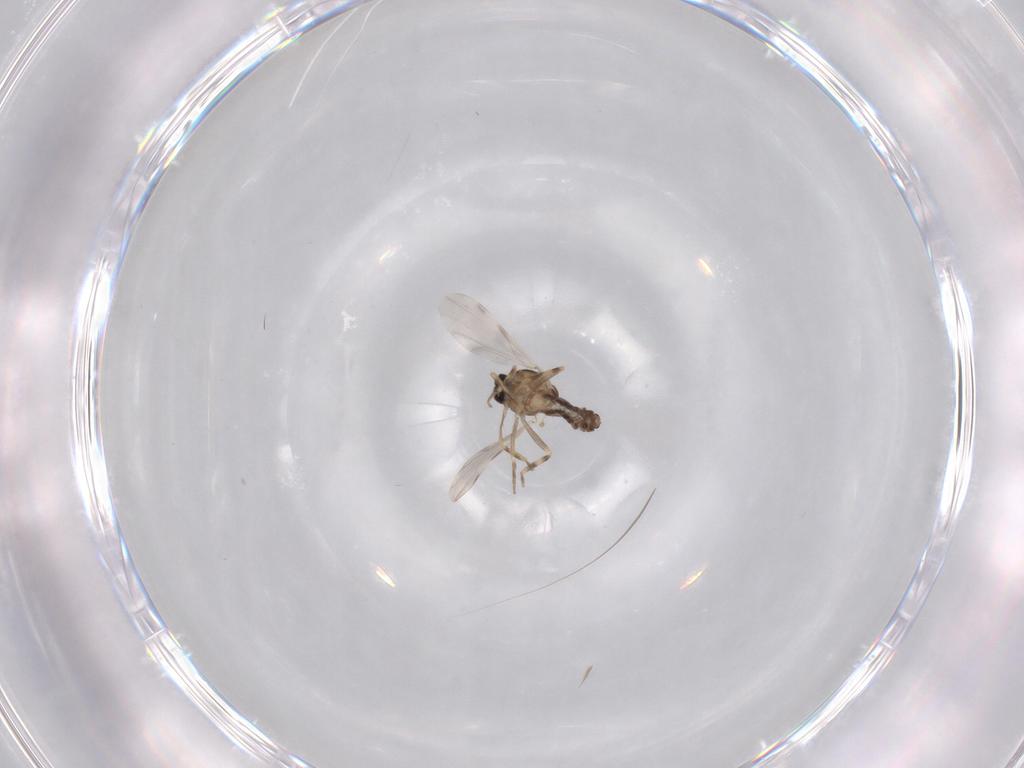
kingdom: Animalia
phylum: Arthropoda
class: Insecta
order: Diptera
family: Ceratopogonidae
